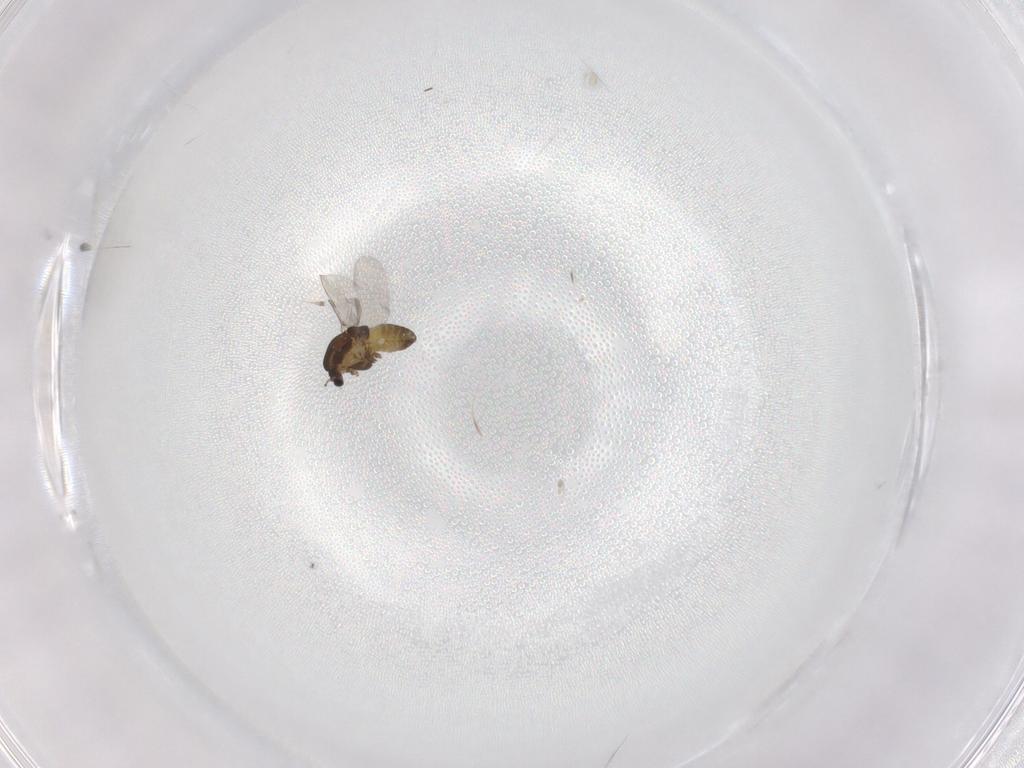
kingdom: Animalia
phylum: Arthropoda
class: Insecta
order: Diptera
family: Chironomidae
